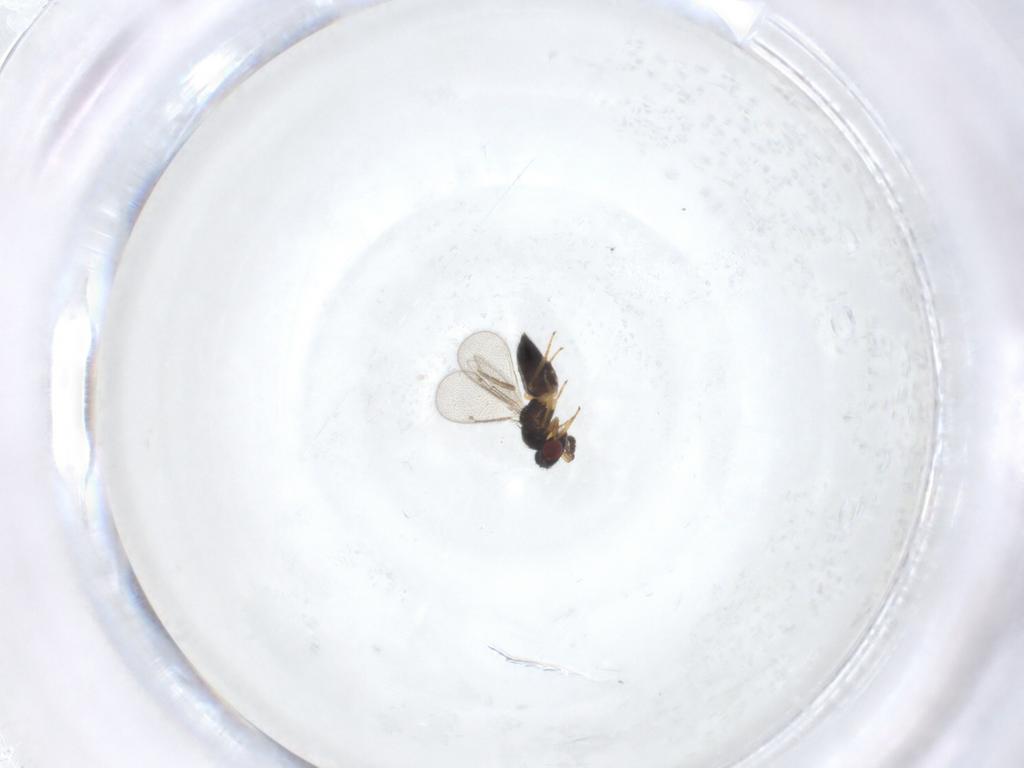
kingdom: Animalia
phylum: Arthropoda
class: Insecta
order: Hymenoptera
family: Eulophidae
